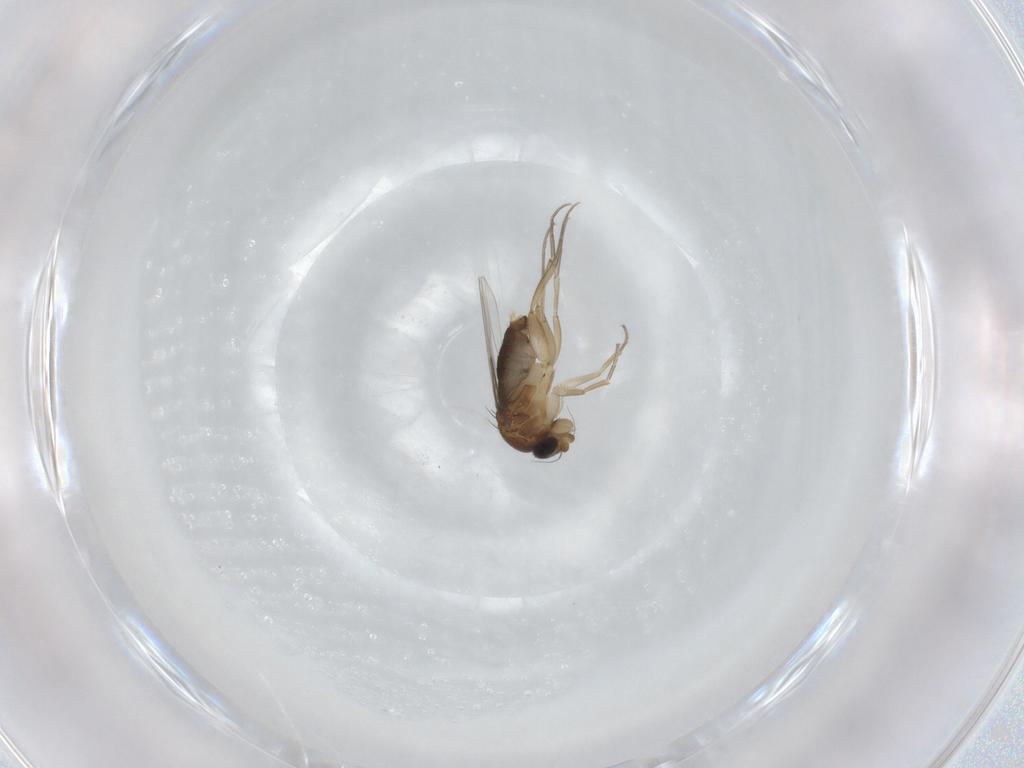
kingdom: Animalia
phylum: Arthropoda
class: Insecta
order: Diptera
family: Phoridae
